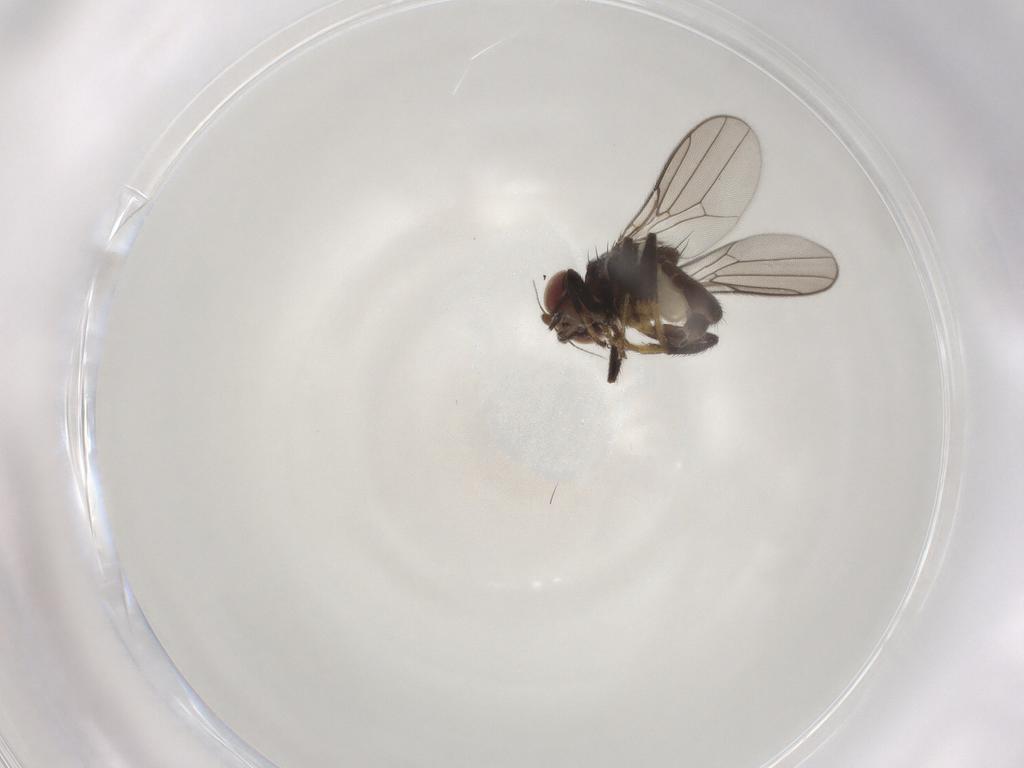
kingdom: Animalia
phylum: Arthropoda
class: Insecta
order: Diptera
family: Chloropidae
